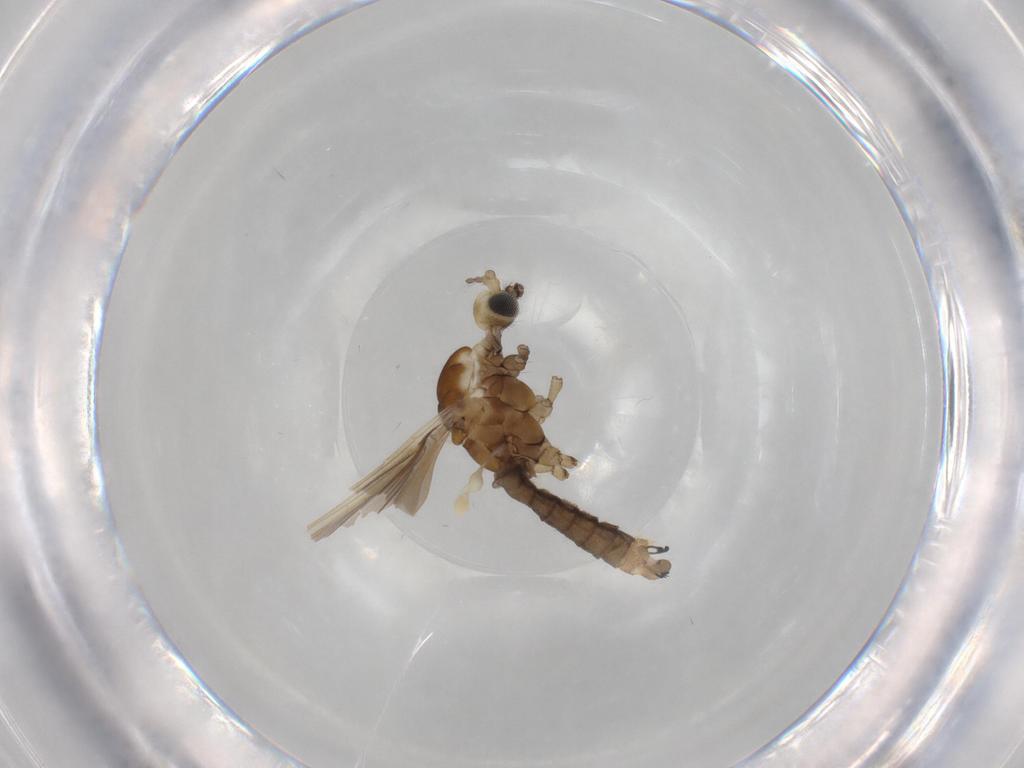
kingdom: Animalia
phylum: Arthropoda
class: Insecta
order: Diptera
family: Limoniidae
